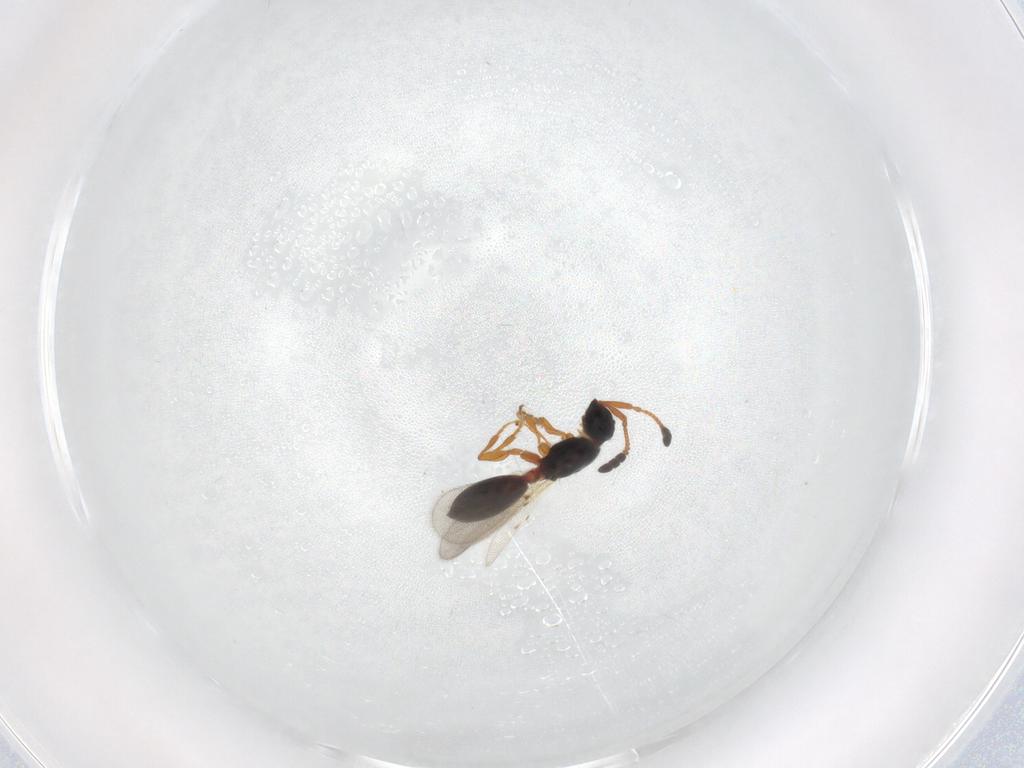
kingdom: Animalia
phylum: Arthropoda
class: Insecta
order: Hymenoptera
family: Diapriidae
